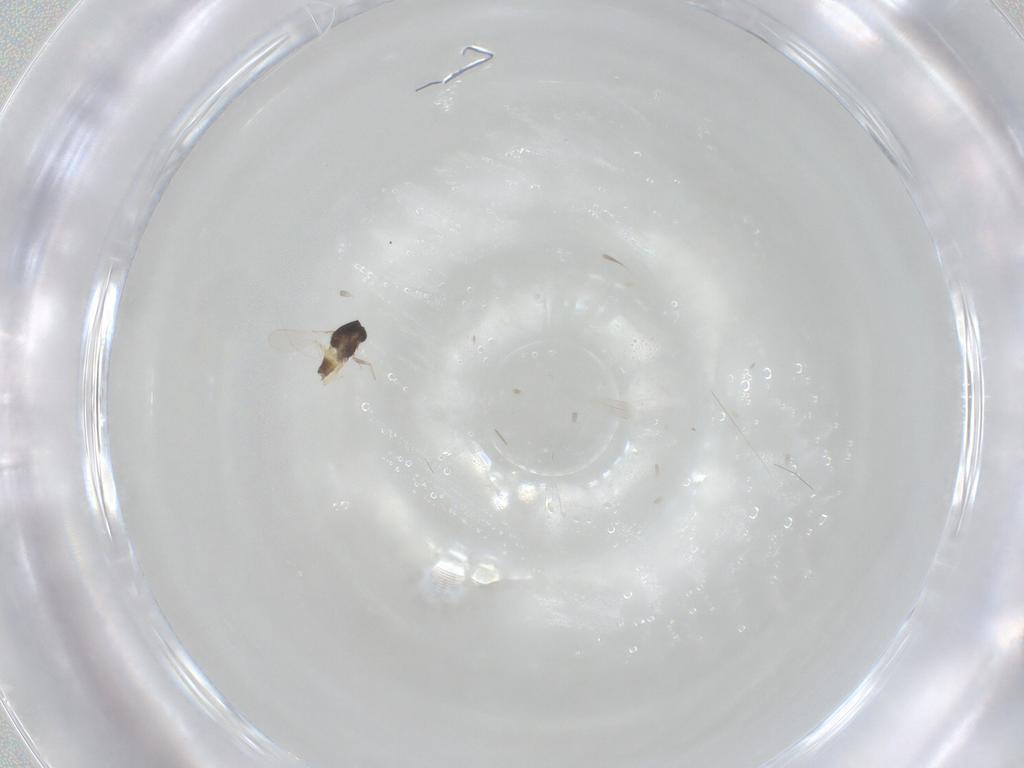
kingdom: Animalia
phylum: Arthropoda
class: Insecta
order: Diptera
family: Chironomidae
